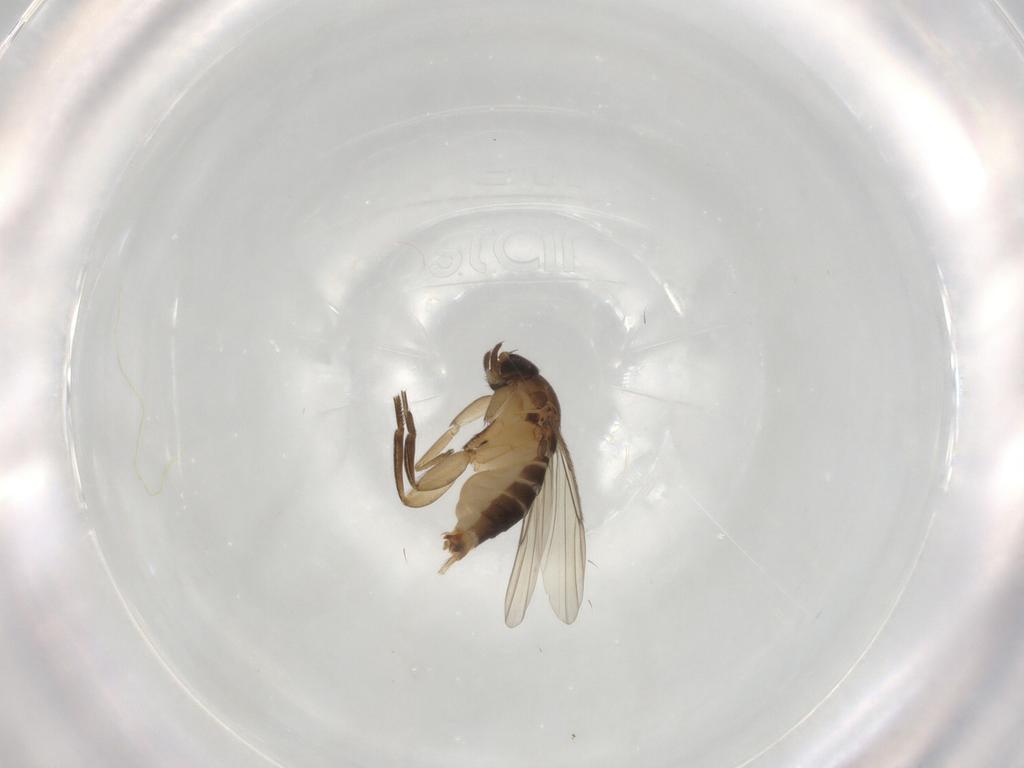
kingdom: Animalia
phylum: Arthropoda
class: Insecta
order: Diptera
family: Phoridae
